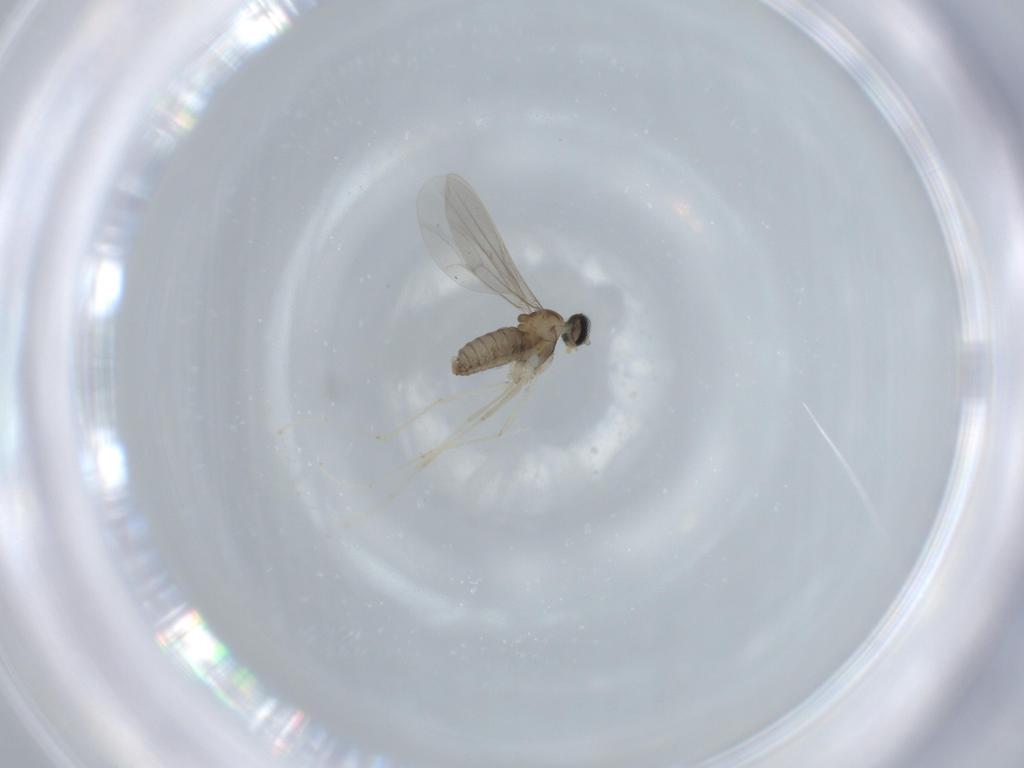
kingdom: Animalia
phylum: Arthropoda
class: Insecta
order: Diptera
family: Cecidomyiidae
